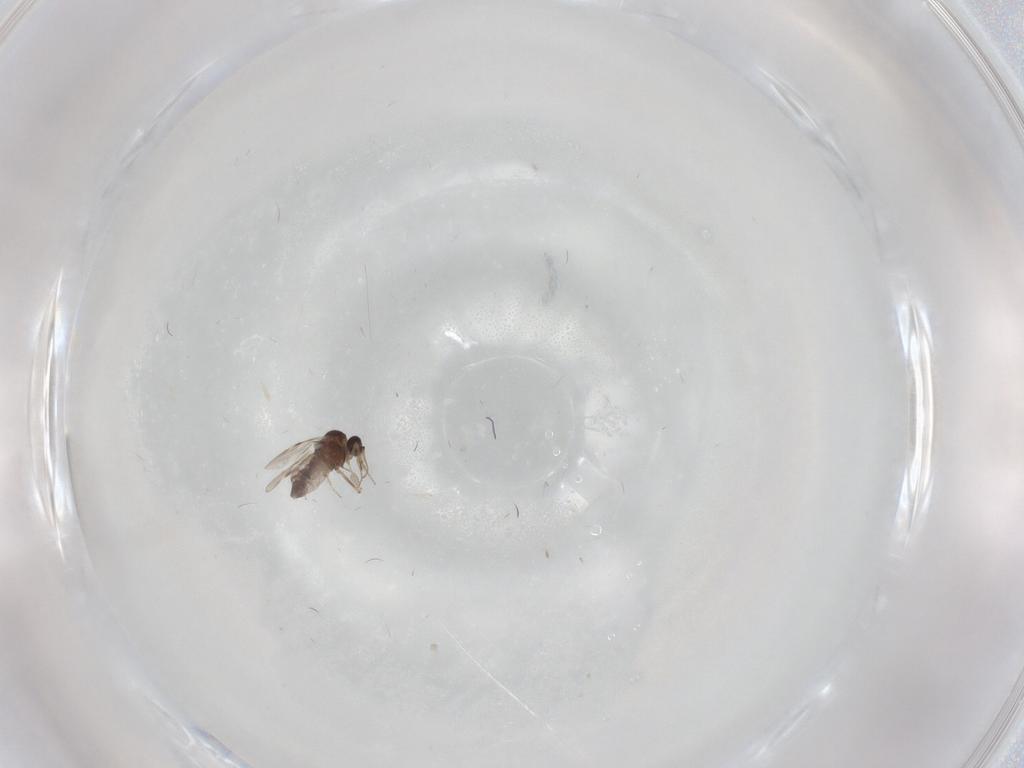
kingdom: Animalia
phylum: Arthropoda
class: Insecta
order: Diptera
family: Mycetophilidae
